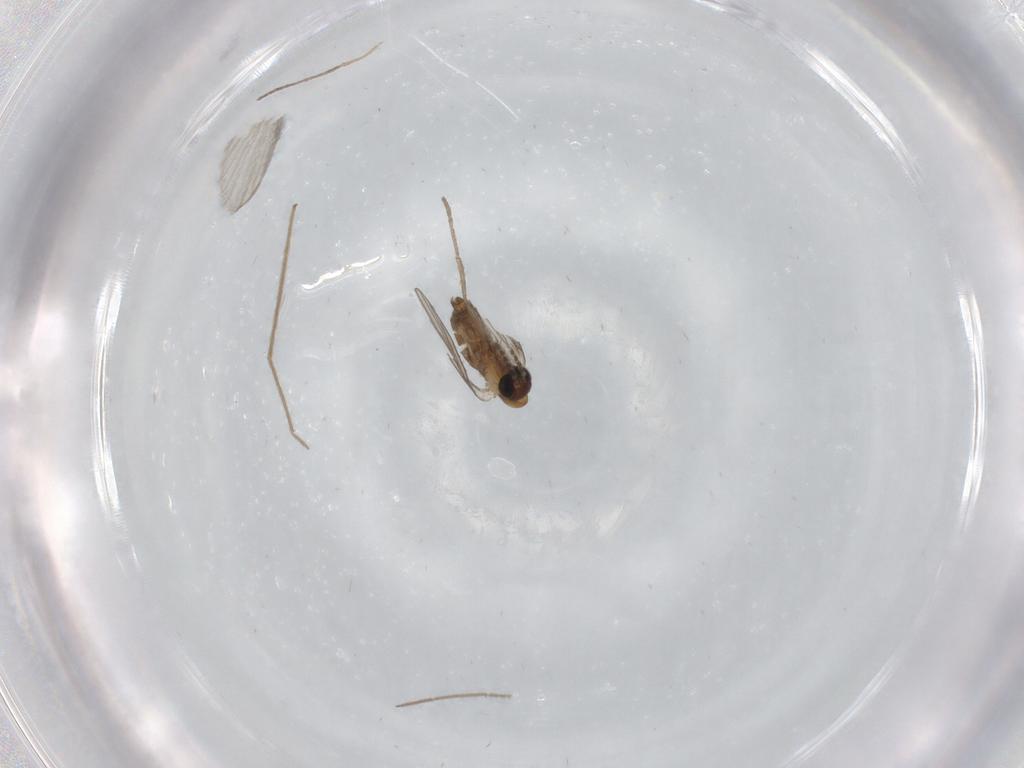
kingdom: Animalia
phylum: Arthropoda
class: Insecta
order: Diptera
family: Psychodidae
